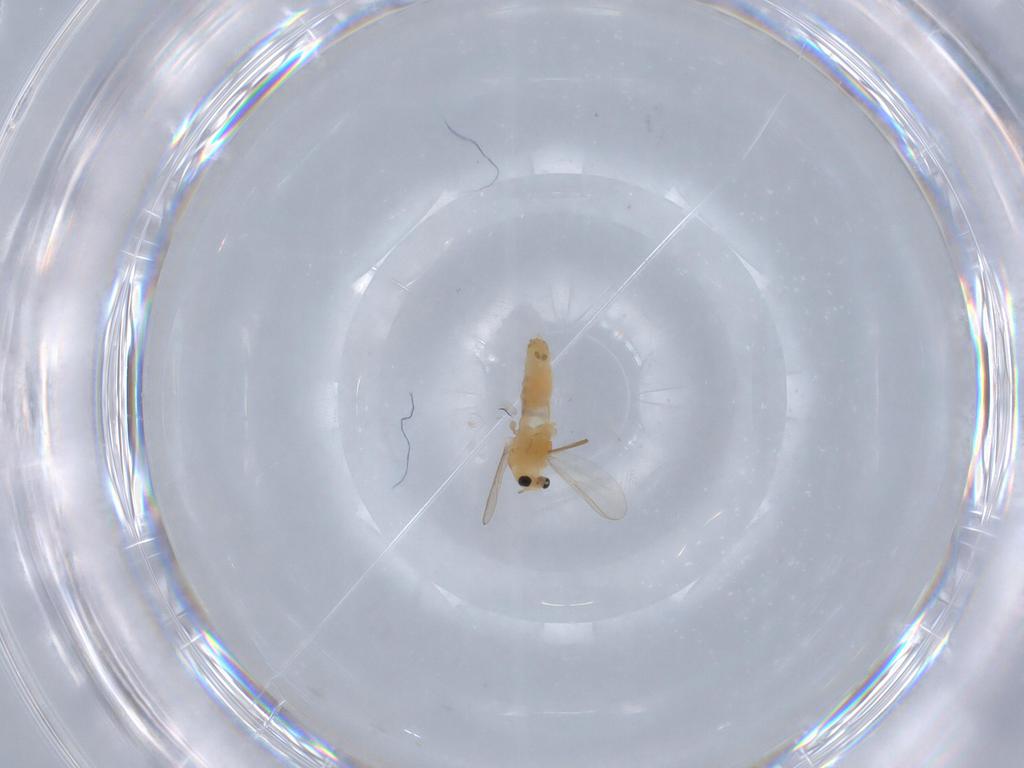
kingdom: Animalia
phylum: Arthropoda
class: Insecta
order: Diptera
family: Chironomidae
